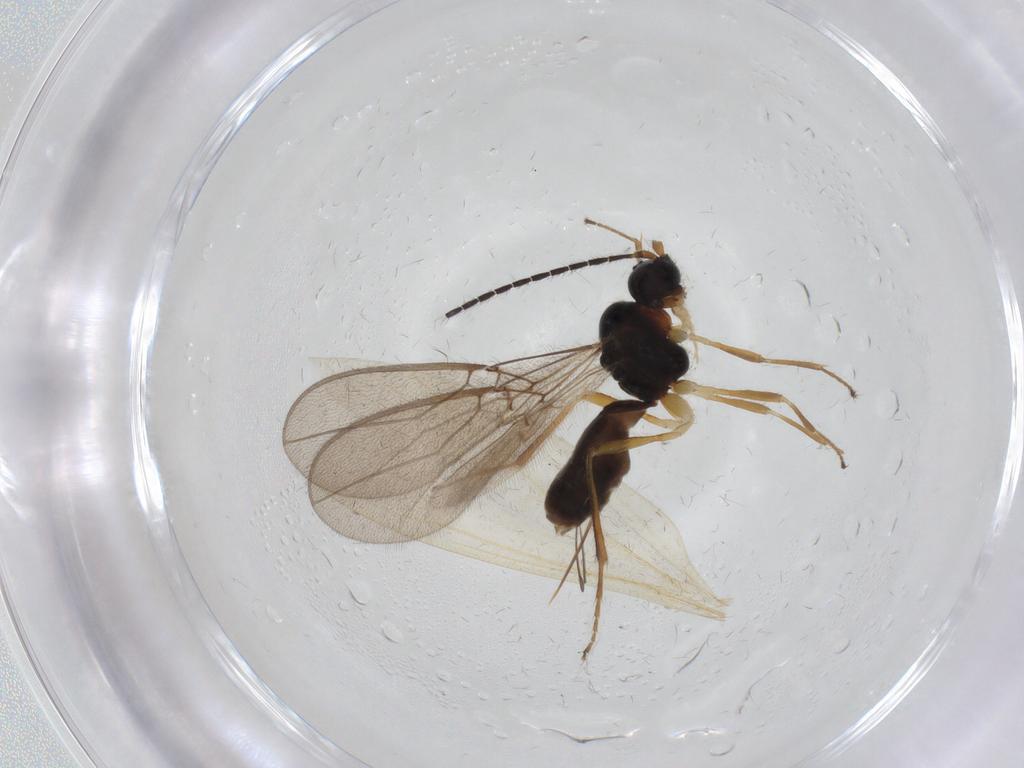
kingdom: Animalia
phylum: Arthropoda
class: Insecta
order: Hymenoptera
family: Braconidae
